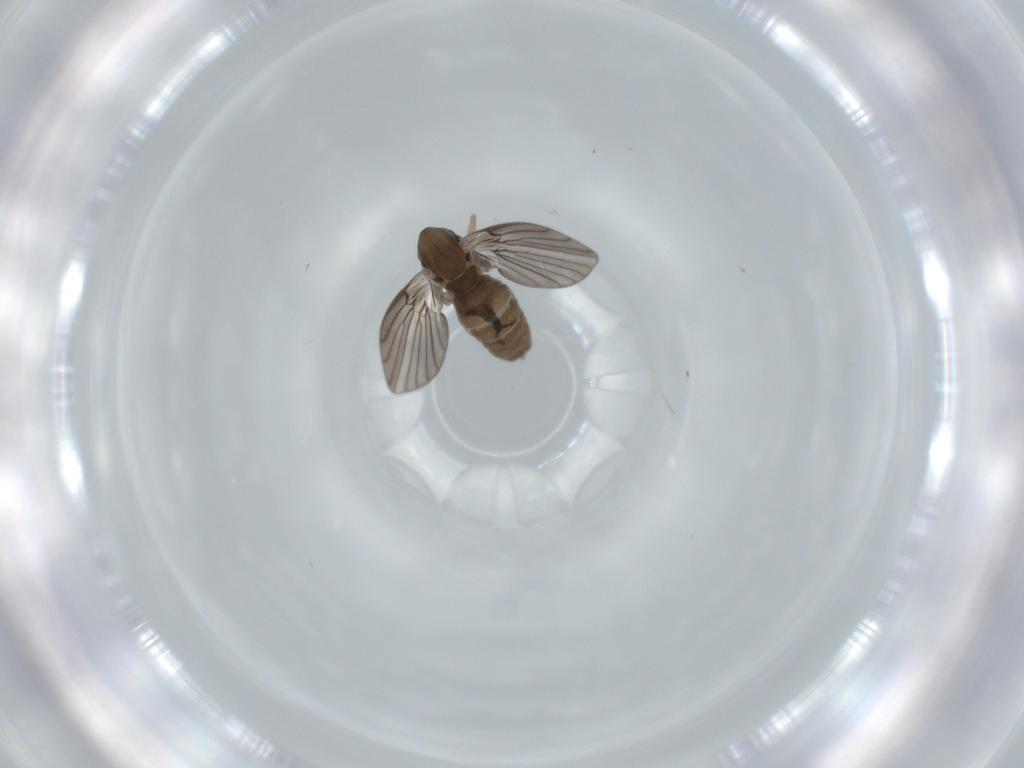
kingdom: Animalia
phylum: Arthropoda
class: Insecta
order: Diptera
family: Psychodidae
